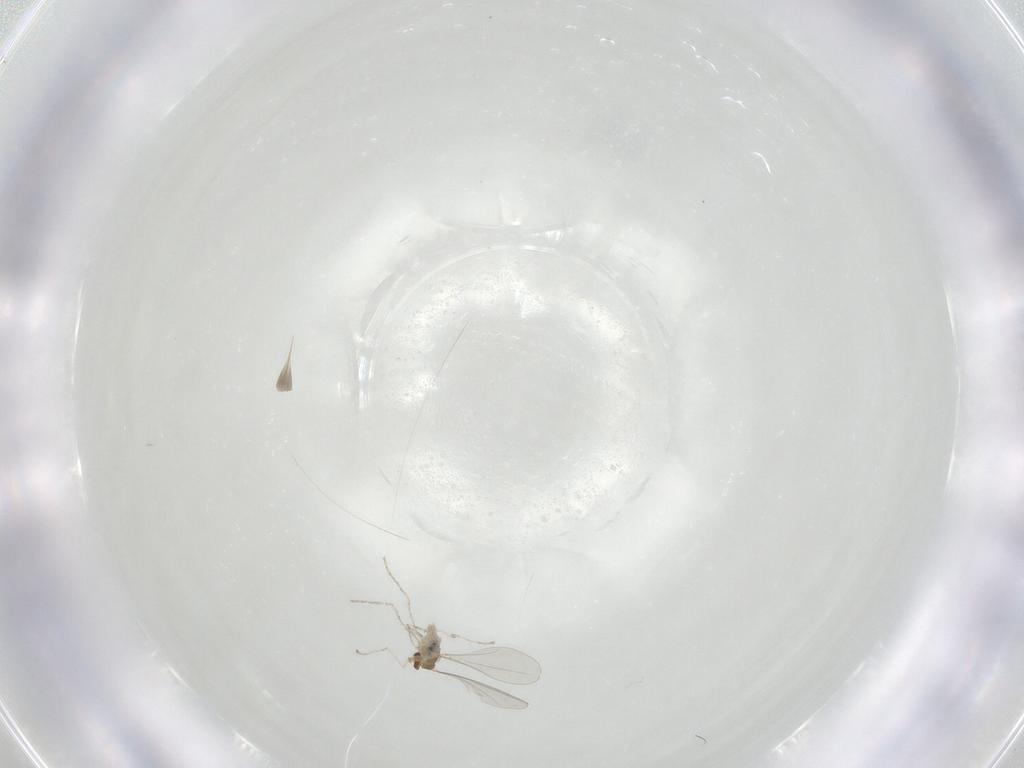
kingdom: Animalia
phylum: Arthropoda
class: Insecta
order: Diptera
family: Cecidomyiidae
